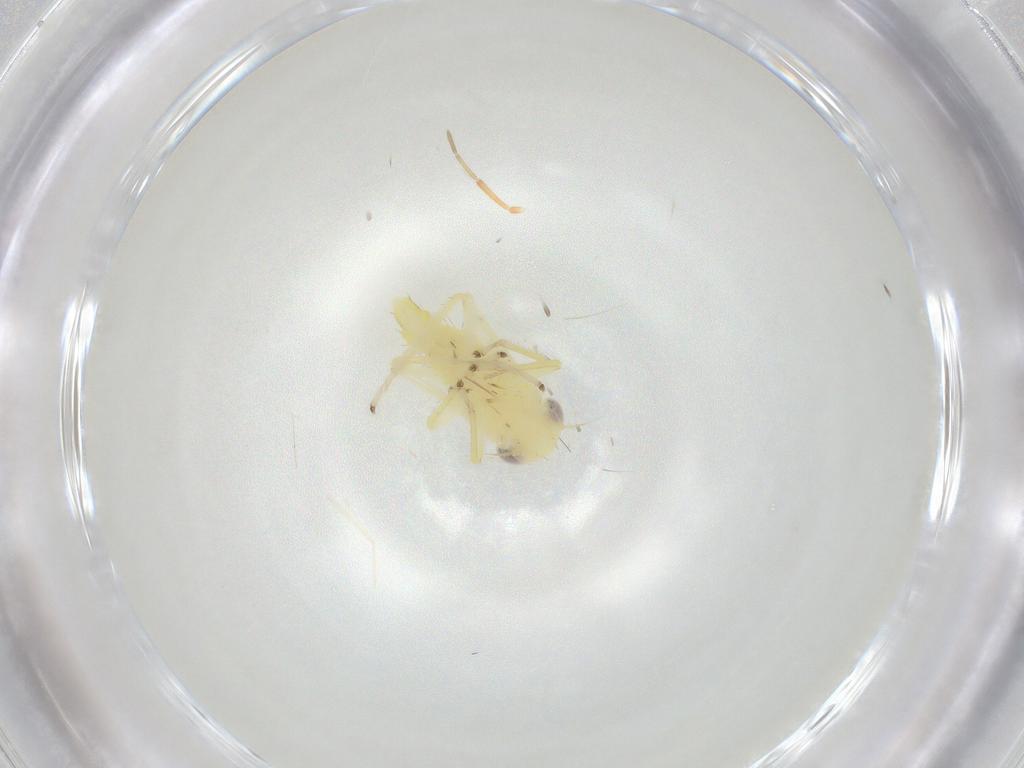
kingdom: Animalia
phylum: Arthropoda
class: Insecta
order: Hemiptera
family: Cicadellidae
